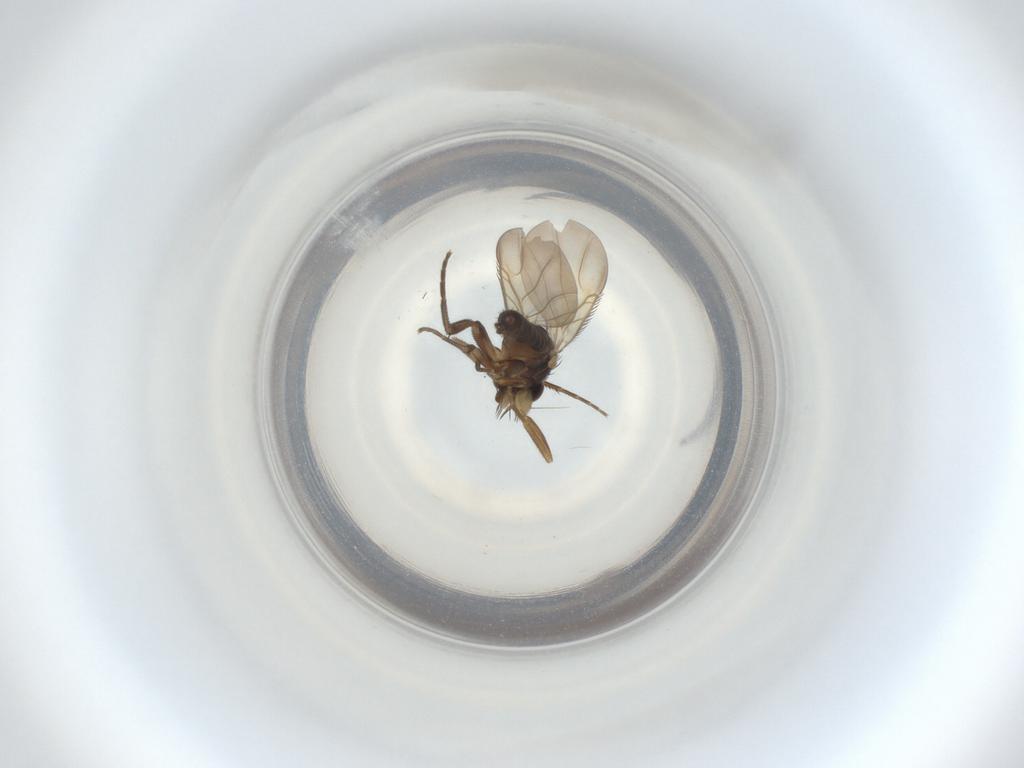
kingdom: Animalia
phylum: Arthropoda
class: Insecta
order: Diptera
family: Phoridae
